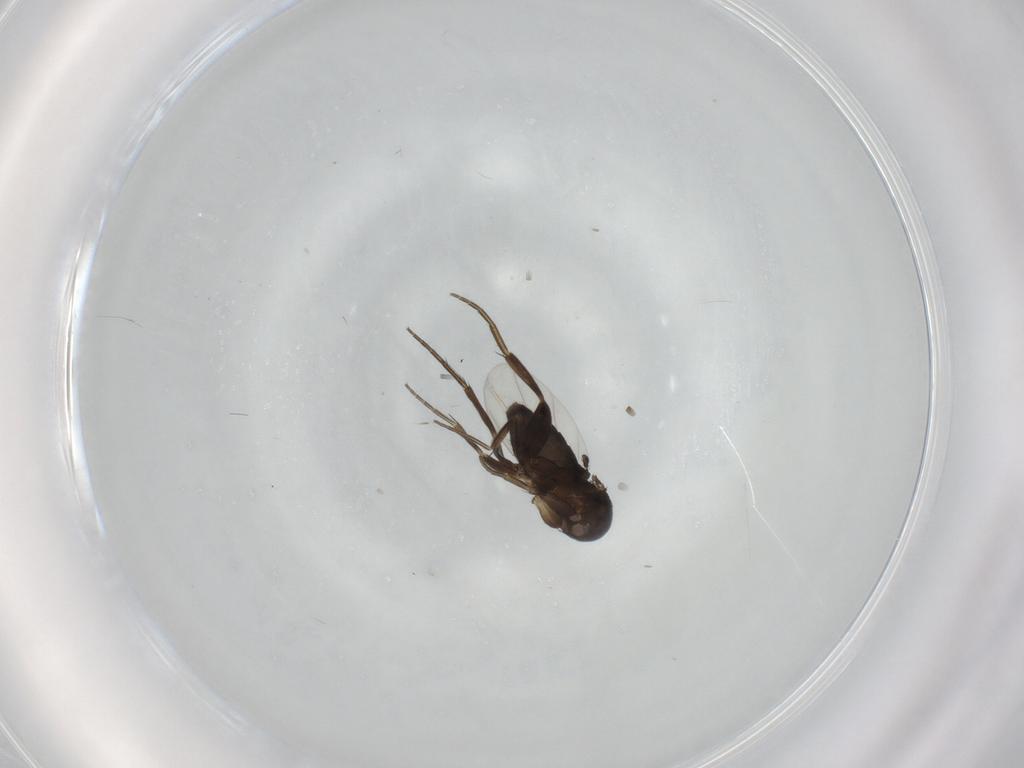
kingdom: Animalia
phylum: Arthropoda
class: Insecta
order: Diptera
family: Phoridae
